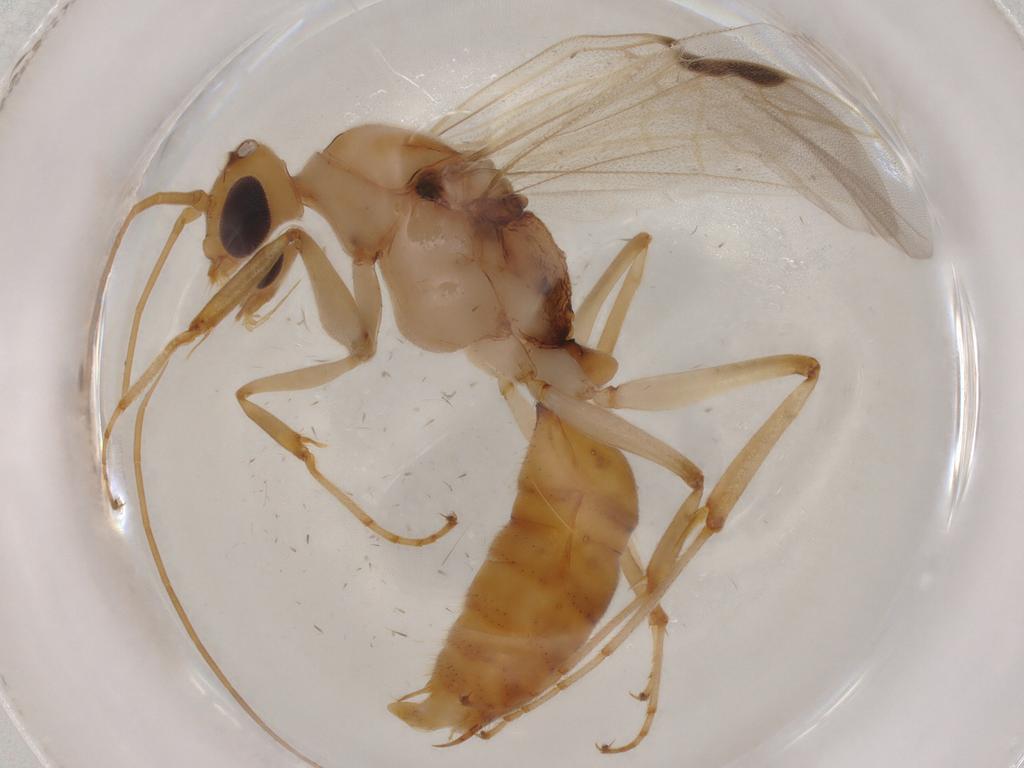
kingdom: Animalia
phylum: Arthropoda
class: Insecta
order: Hymenoptera
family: Formicidae
